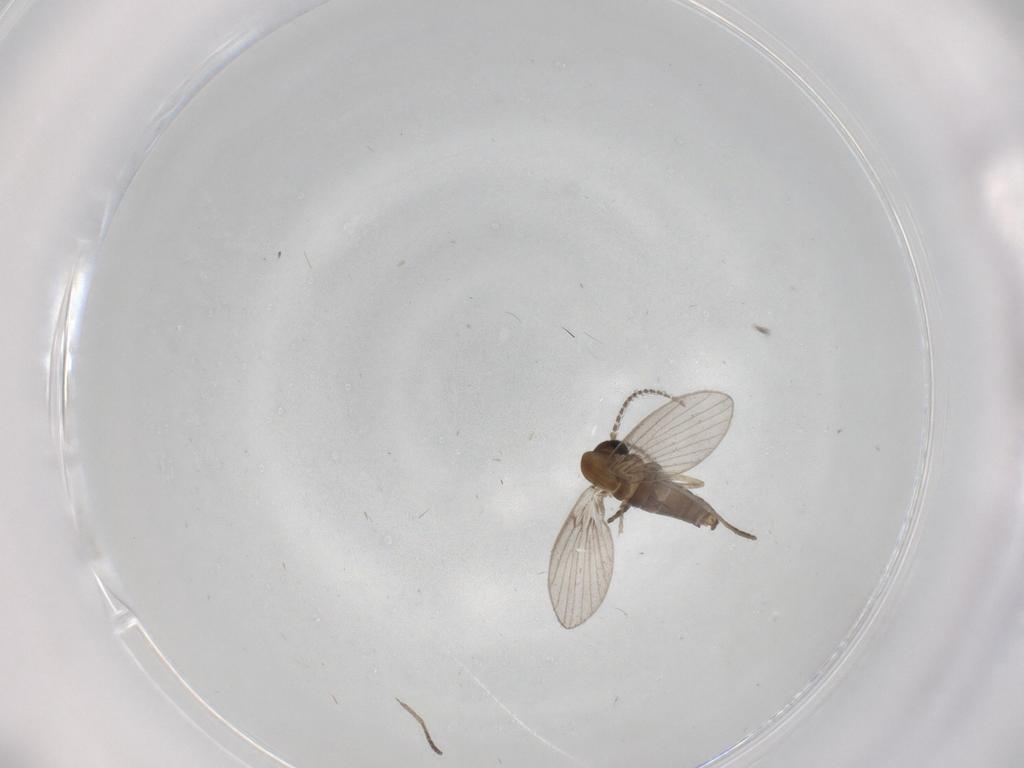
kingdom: Animalia
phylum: Arthropoda
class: Insecta
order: Diptera
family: Psychodidae
